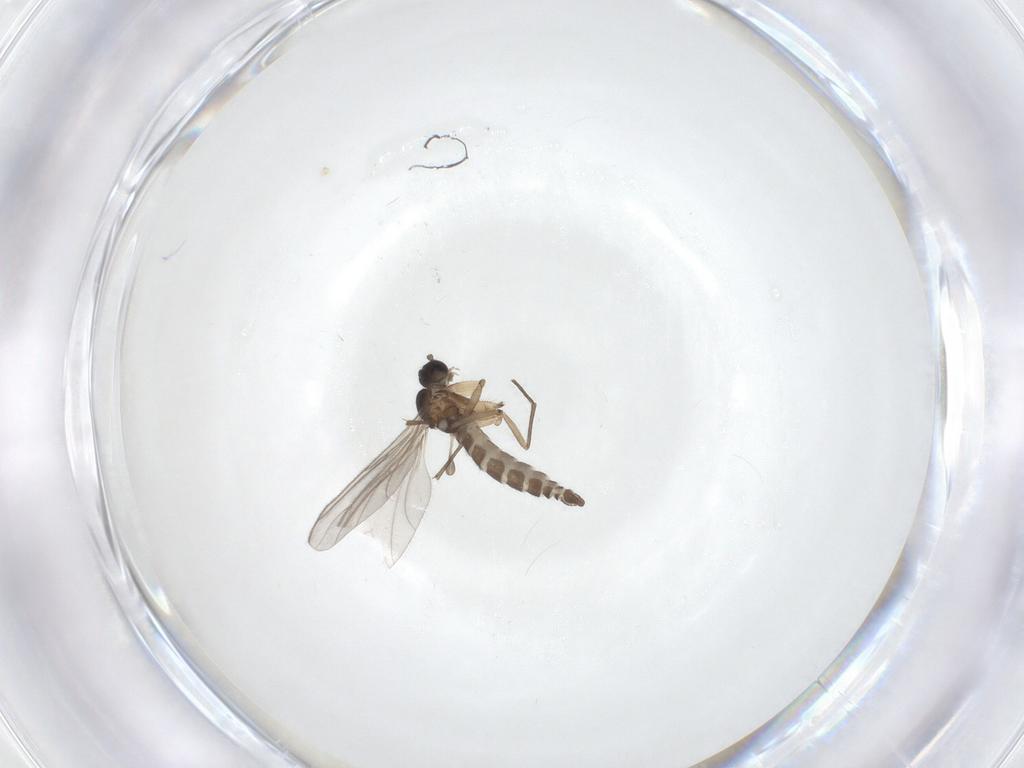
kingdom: Animalia
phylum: Arthropoda
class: Insecta
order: Diptera
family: Sciaridae
